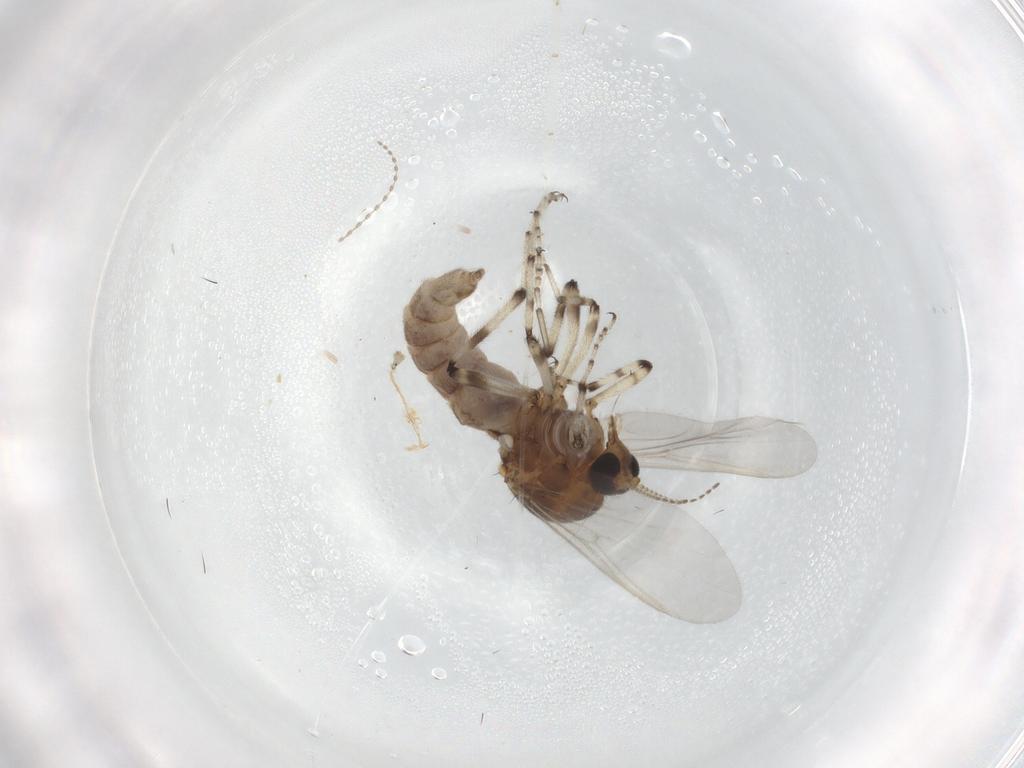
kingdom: Animalia
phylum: Arthropoda
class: Insecta
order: Diptera
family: Ceratopogonidae
